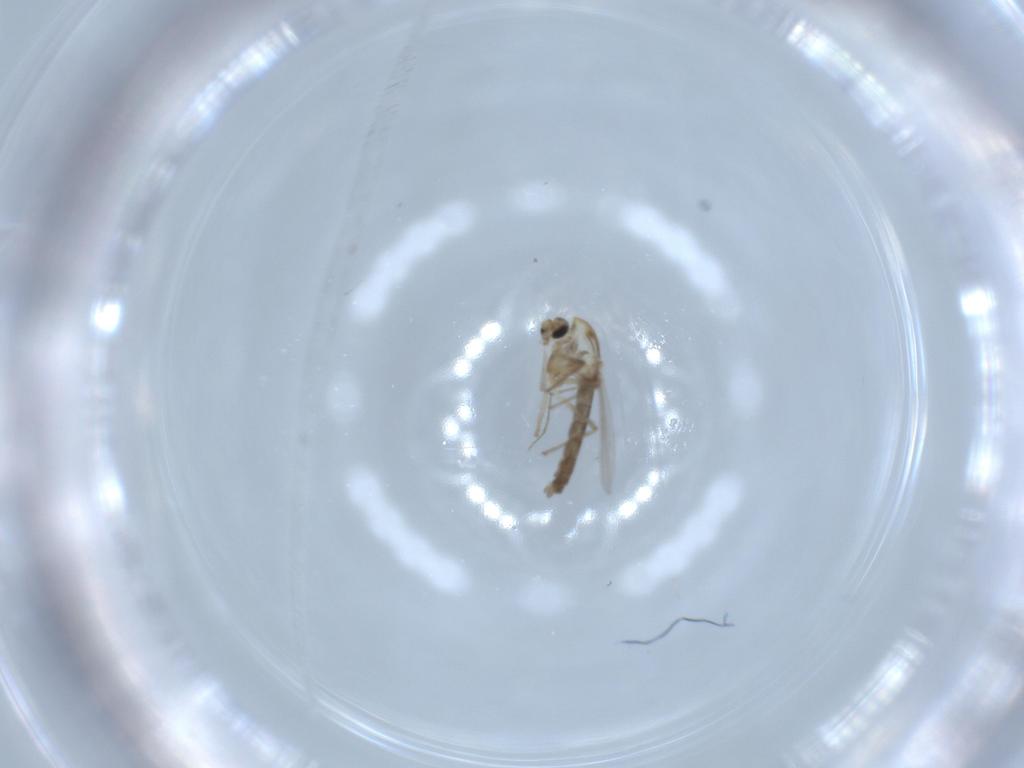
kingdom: Animalia
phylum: Arthropoda
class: Insecta
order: Diptera
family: Chironomidae
